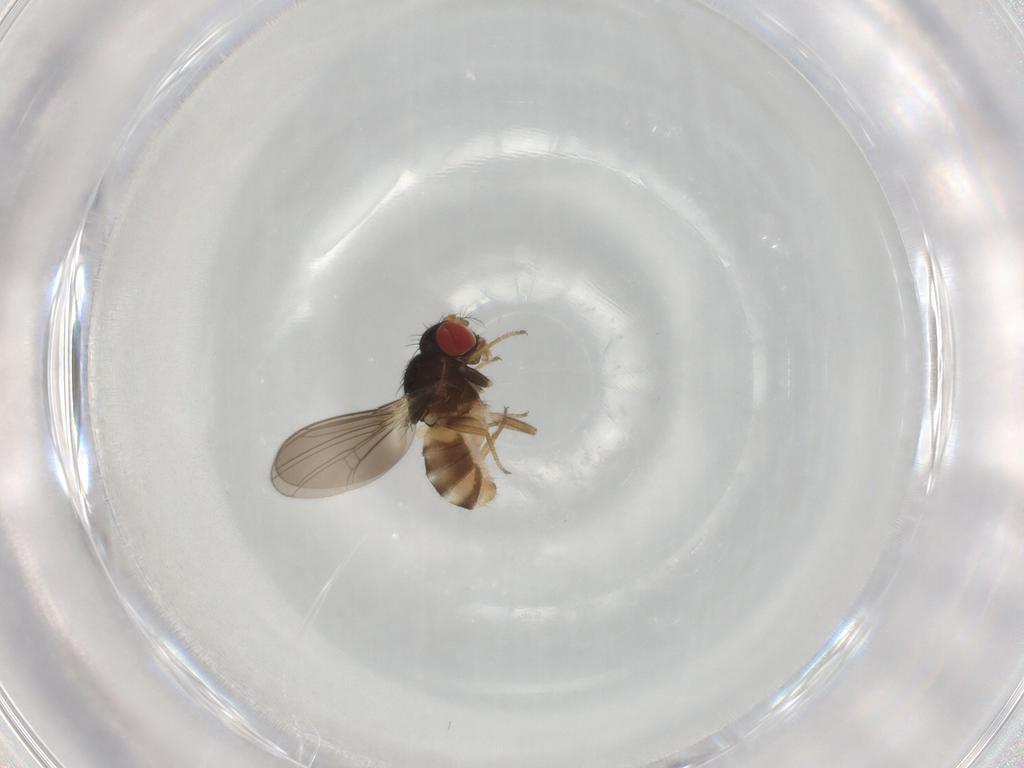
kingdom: Animalia
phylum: Arthropoda
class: Insecta
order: Diptera
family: Drosophilidae
